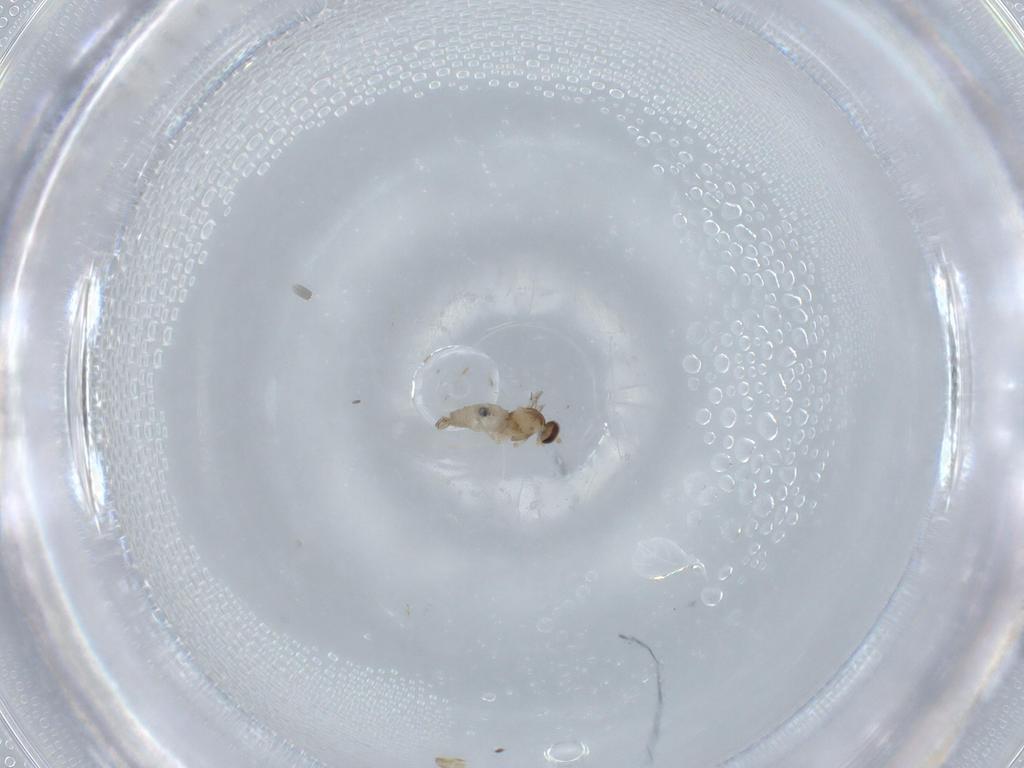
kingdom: Animalia
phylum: Arthropoda
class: Insecta
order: Diptera
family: Cecidomyiidae
